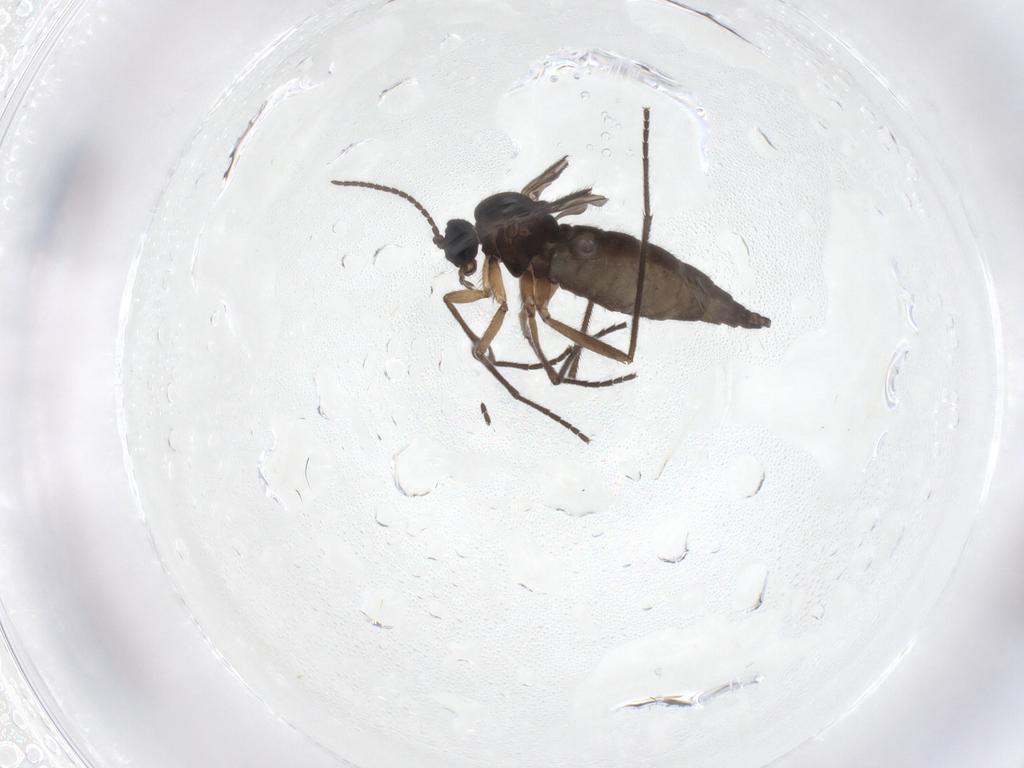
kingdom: Animalia
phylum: Arthropoda
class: Insecta
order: Diptera
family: Sciaridae
